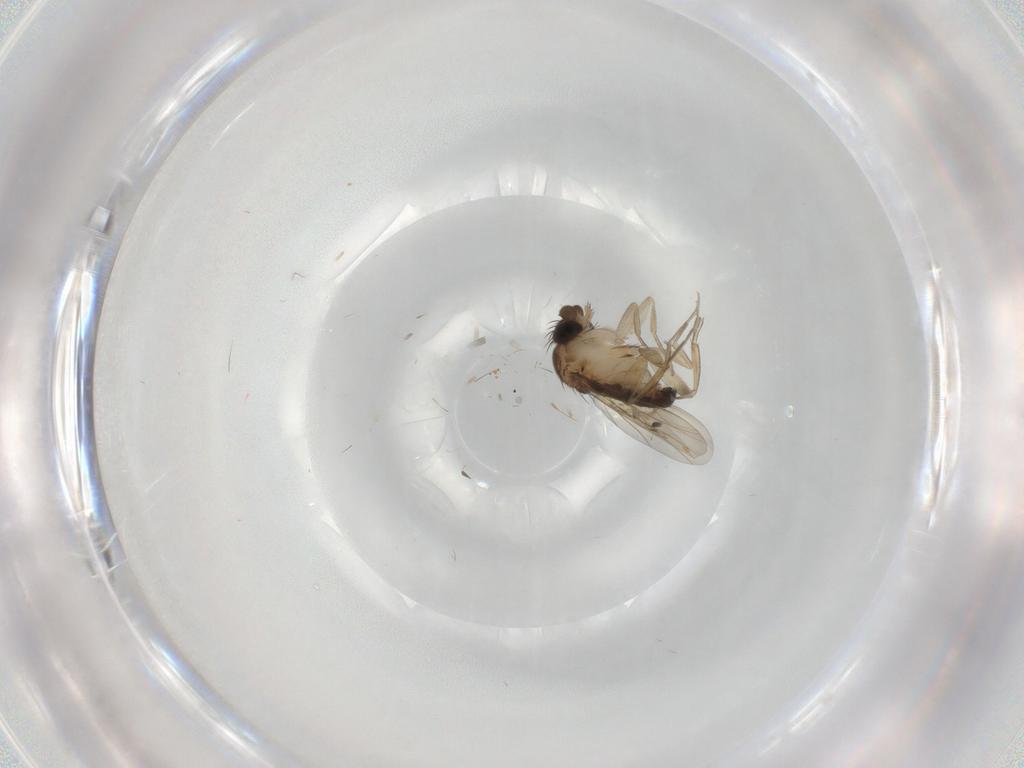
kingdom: Animalia
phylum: Arthropoda
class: Insecta
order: Diptera
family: Phoridae
